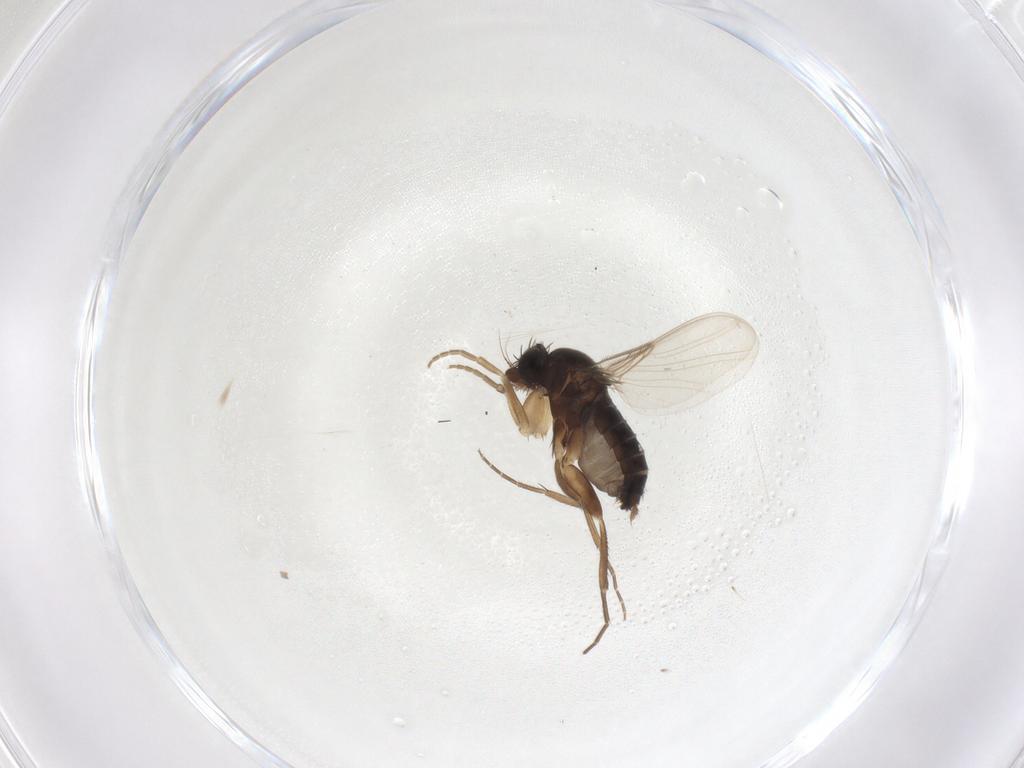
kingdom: Animalia
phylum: Arthropoda
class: Insecta
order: Diptera
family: Phoridae
